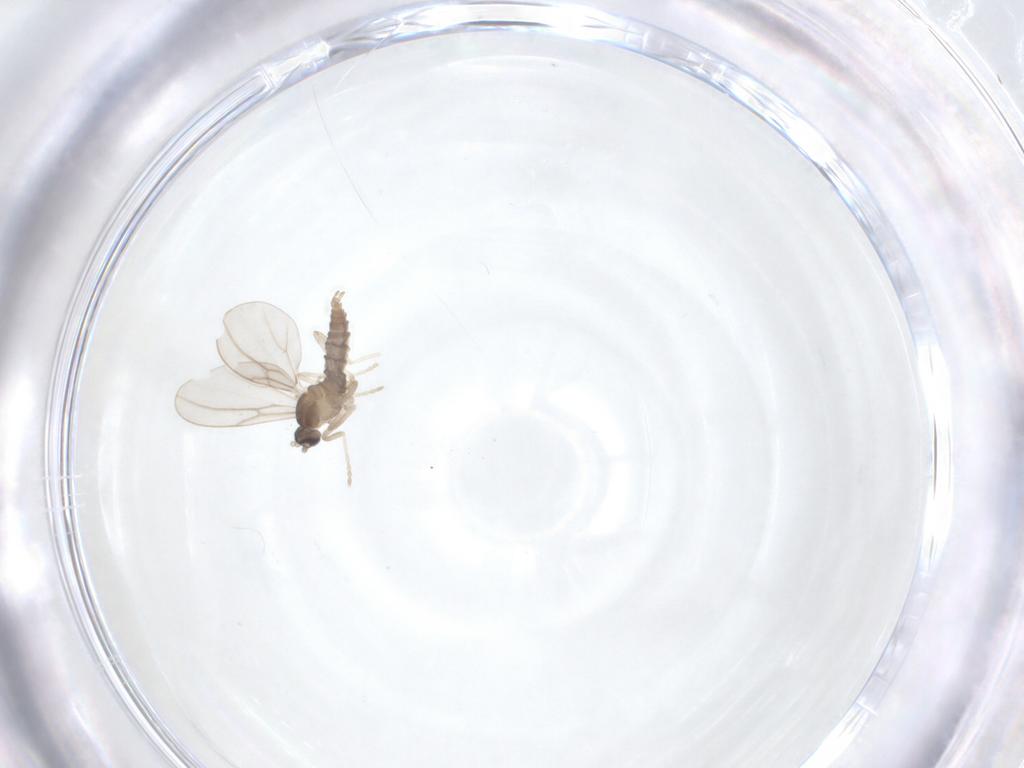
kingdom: Animalia
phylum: Arthropoda
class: Insecta
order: Diptera
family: Cecidomyiidae
